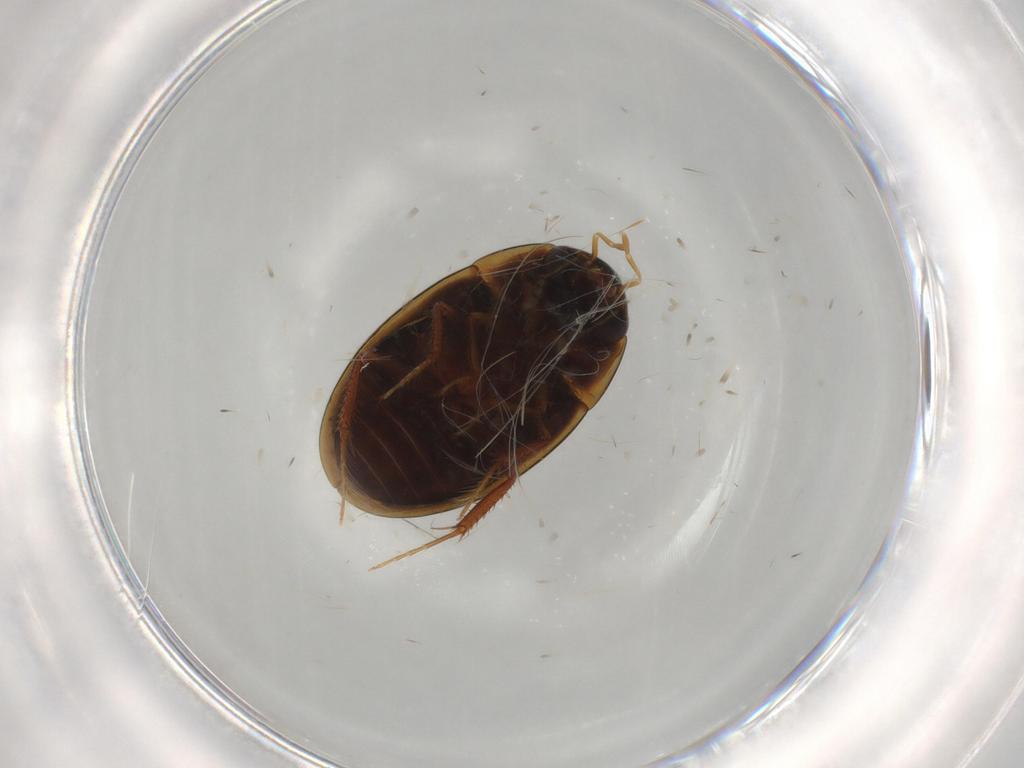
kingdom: Animalia
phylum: Arthropoda
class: Insecta
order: Coleoptera
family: Hydrophilidae
